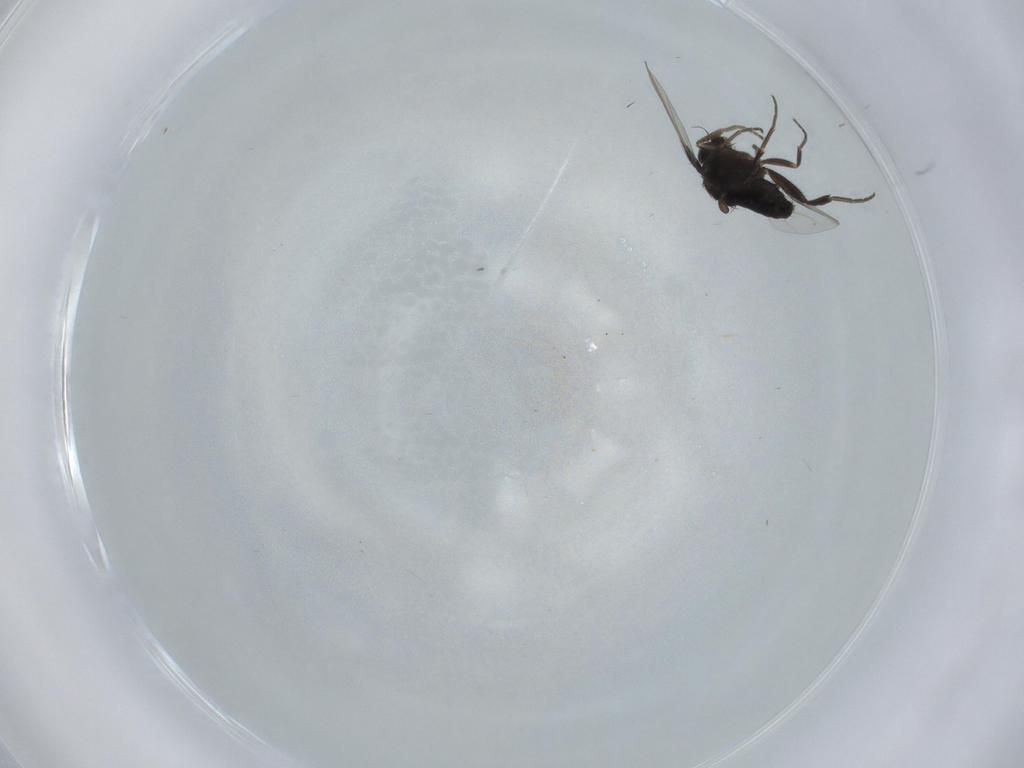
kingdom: Animalia
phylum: Arthropoda
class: Insecta
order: Diptera
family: Phoridae
